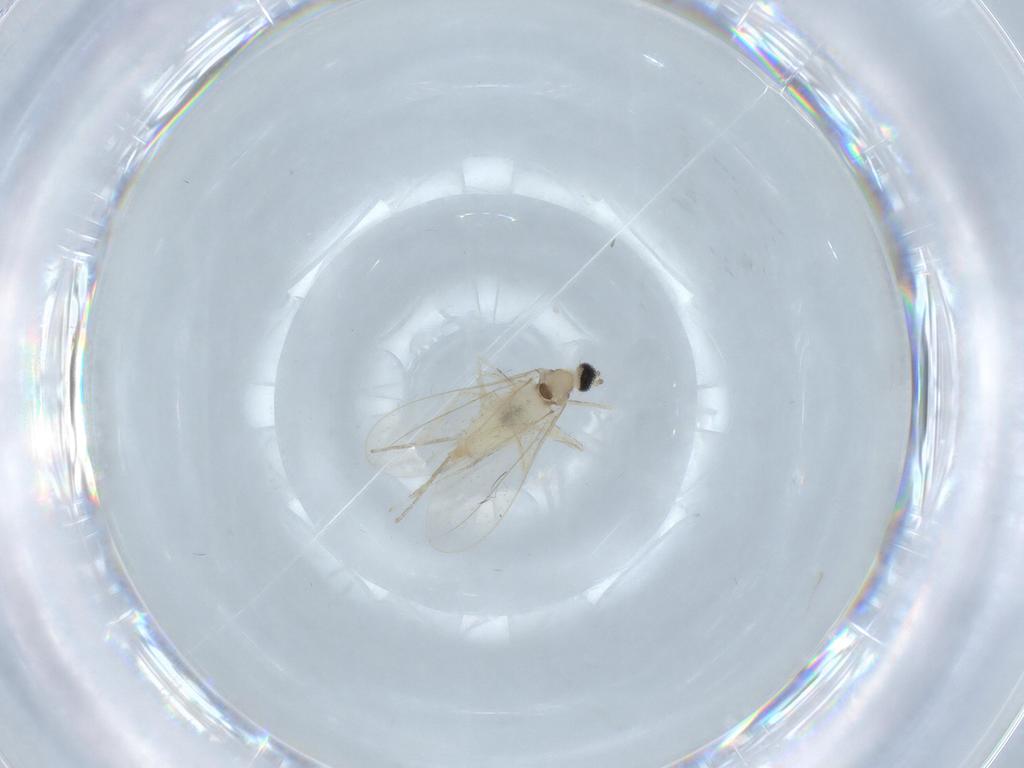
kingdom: Animalia
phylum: Arthropoda
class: Insecta
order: Diptera
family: Cecidomyiidae
